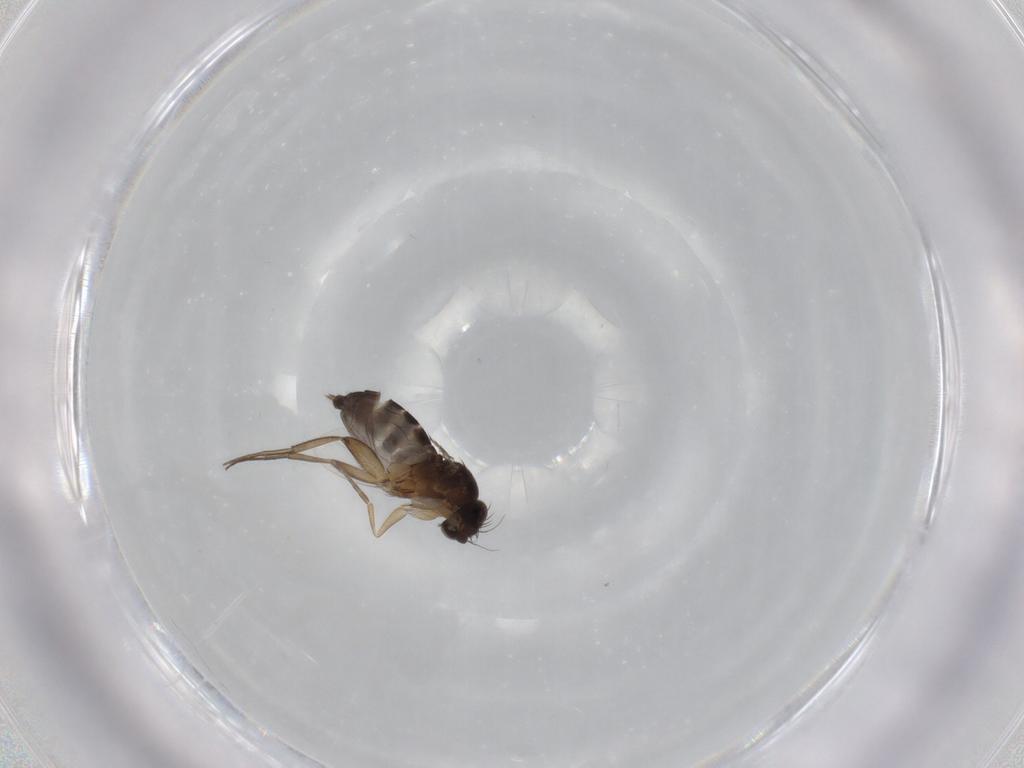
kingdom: Animalia
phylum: Arthropoda
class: Insecta
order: Diptera
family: Phoridae
